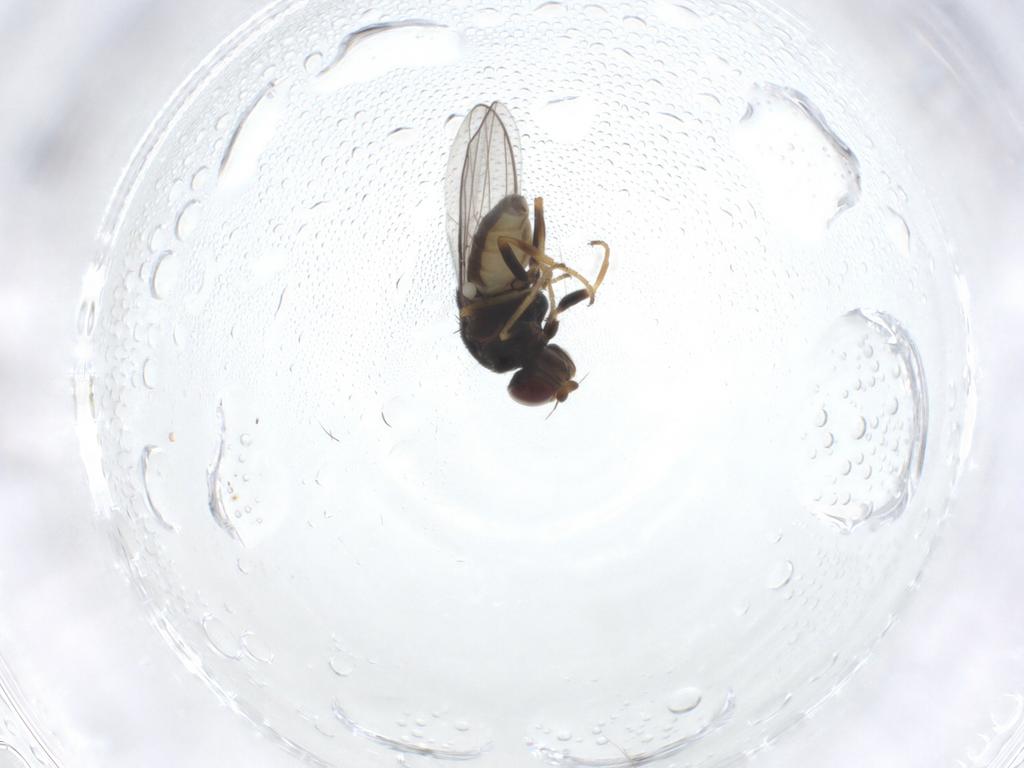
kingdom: Animalia
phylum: Arthropoda
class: Insecta
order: Diptera
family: Chloropidae
